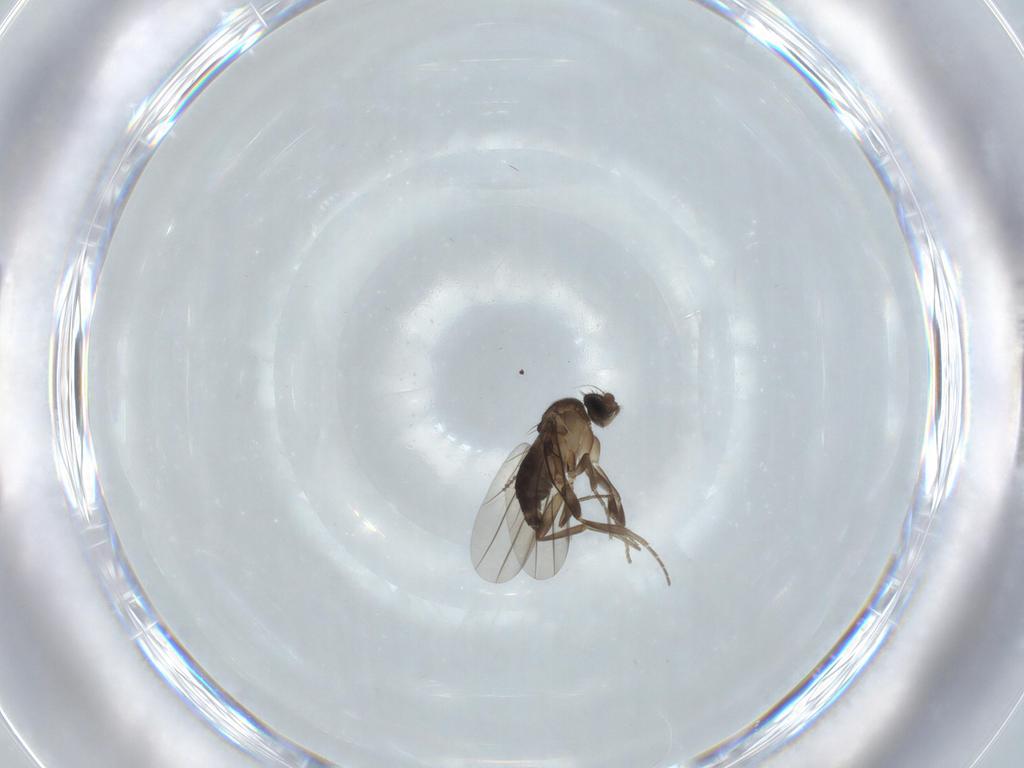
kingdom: Animalia
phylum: Arthropoda
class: Insecta
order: Diptera
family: Phoridae
